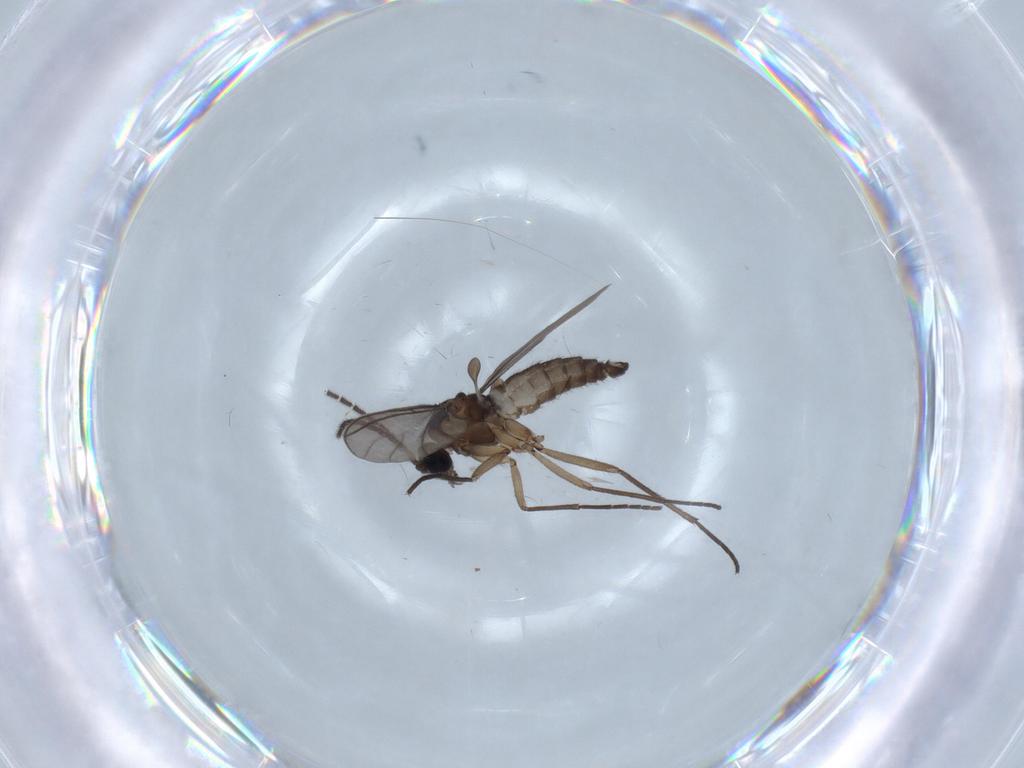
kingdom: Animalia
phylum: Arthropoda
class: Insecta
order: Diptera
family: Sciaridae
